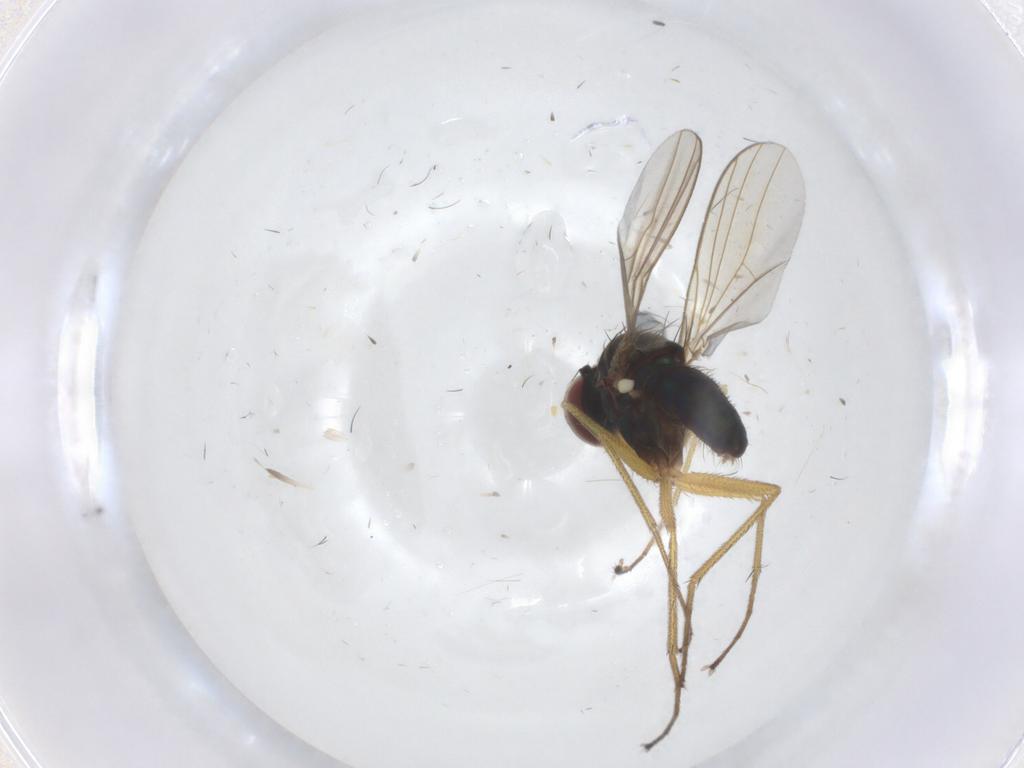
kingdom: Animalia
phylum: Arthropoda
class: Insecta
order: Diptera
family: Dolichopodidae
